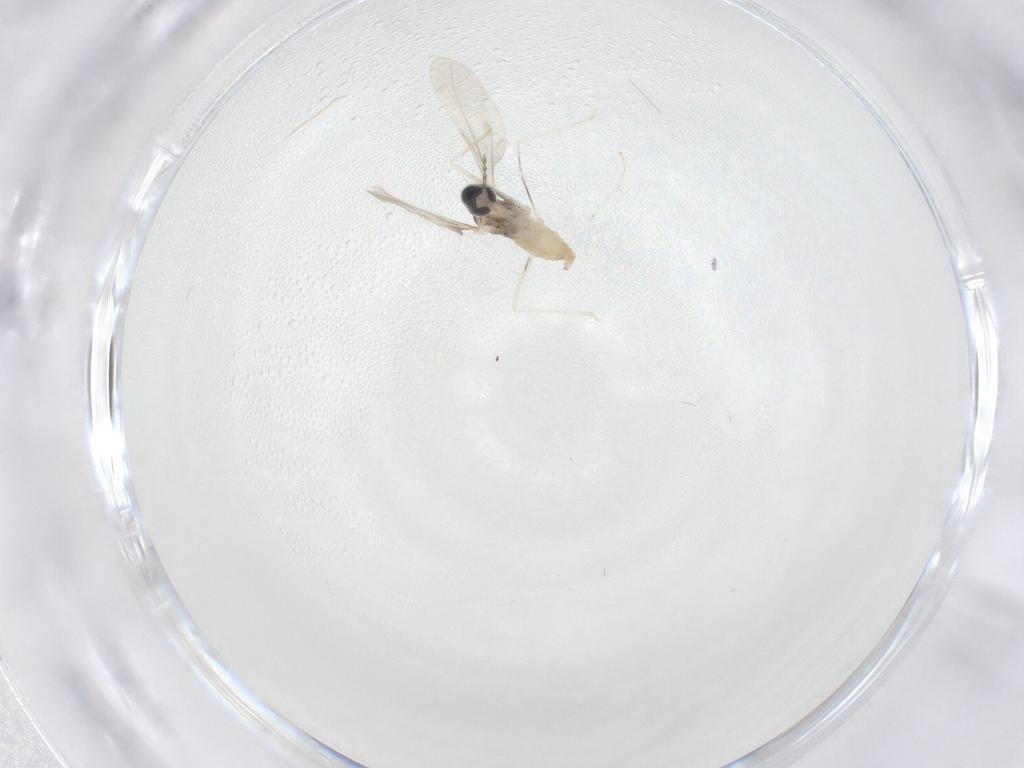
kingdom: Animalia
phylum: Arthropoda
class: Insecta
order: Diptera
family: Cecidomyiidae
